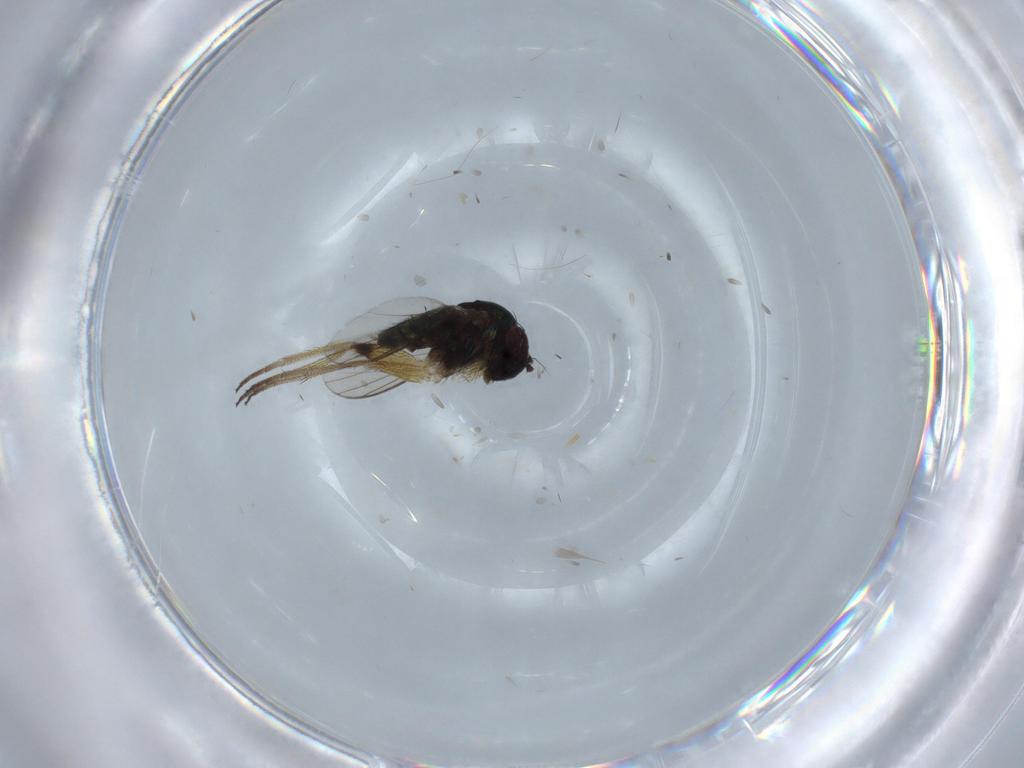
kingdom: Animalia
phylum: Arthropoda
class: Insecta
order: Diptera
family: Dolichopodidae
